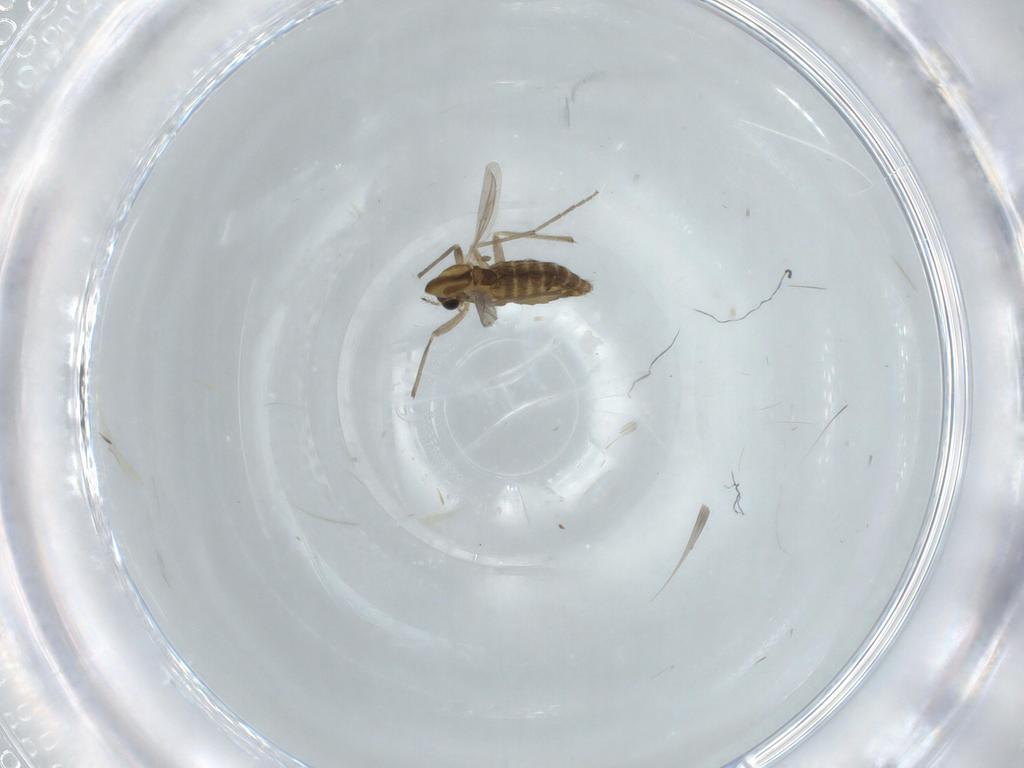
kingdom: Animalia
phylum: Arthropoda
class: Insecta
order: Diptera
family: Chironomidae
